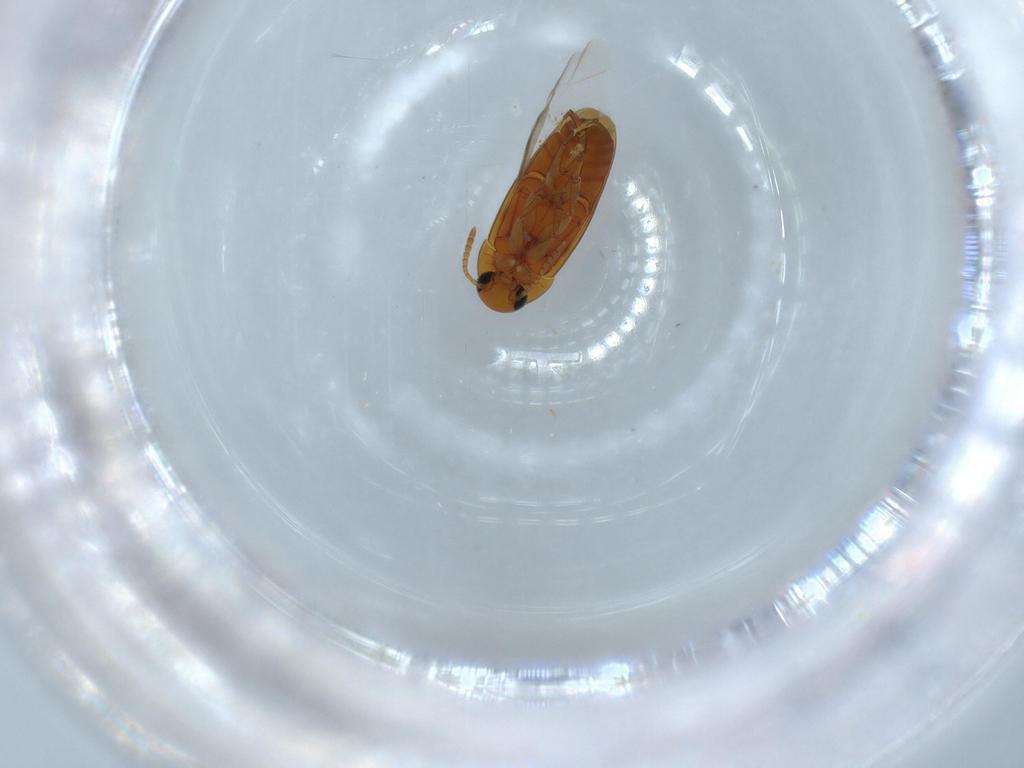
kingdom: Animalia
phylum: Arthropoda
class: Insecta
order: Coleoptera
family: Scraptiidae
